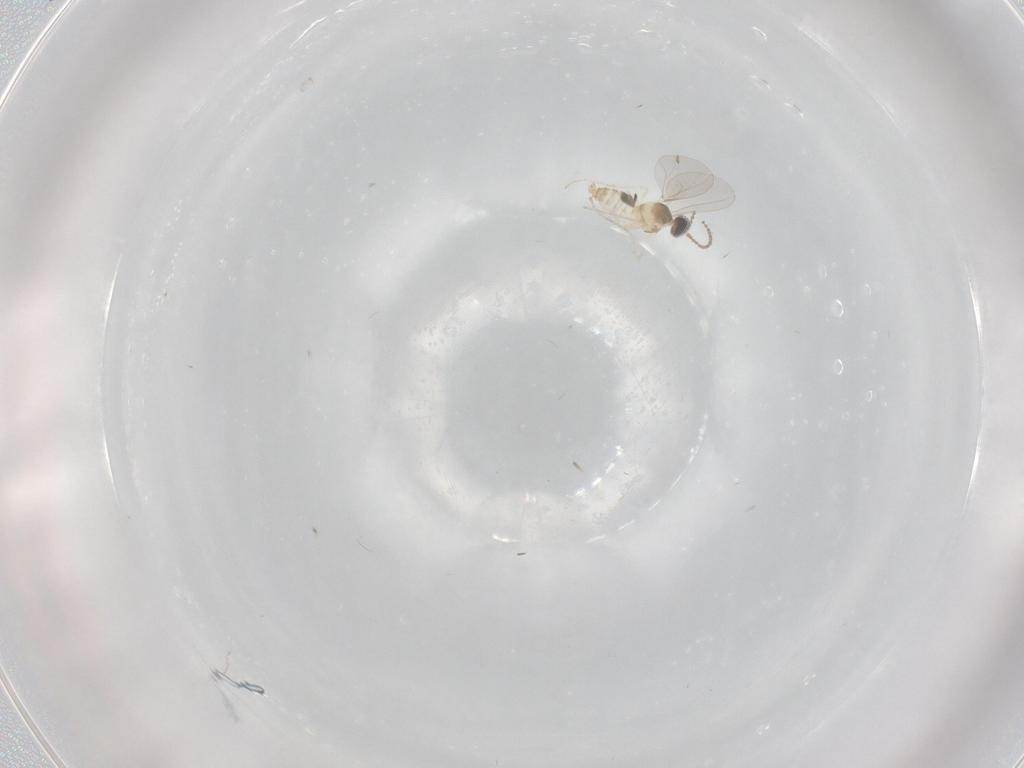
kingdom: Animalia
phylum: Arthropoda
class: Insecta
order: Diptera
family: Cecidomyiidae
